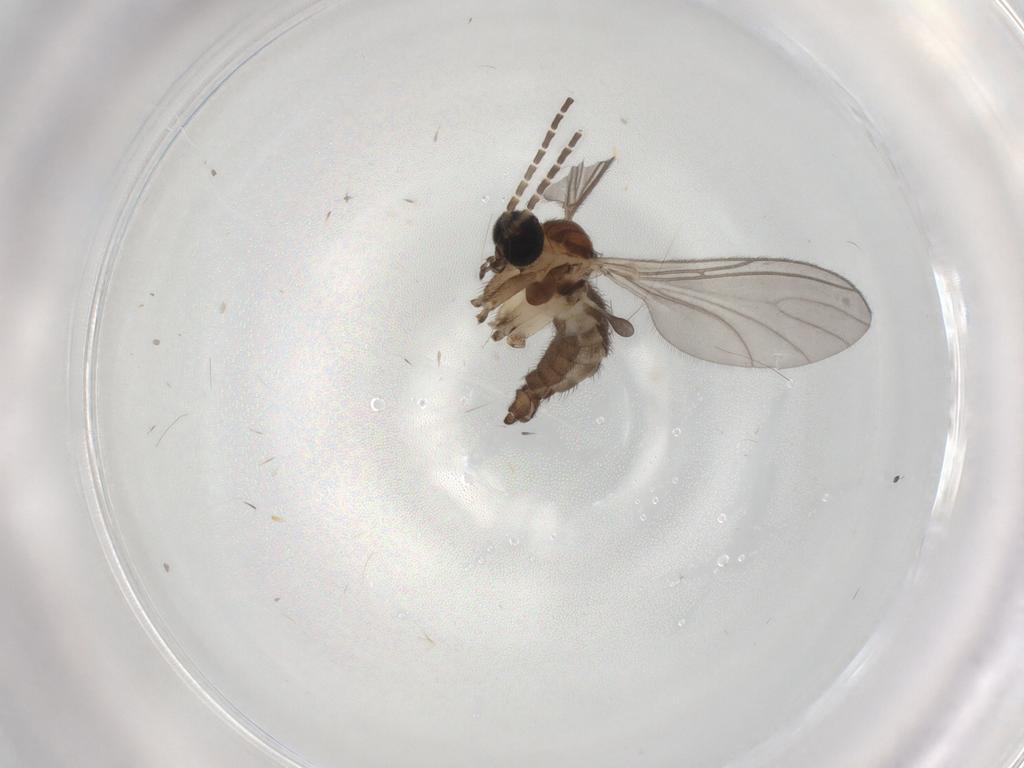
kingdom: Animalia
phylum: Arthropoda
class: Insecta
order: Diptera
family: Sciaridae
